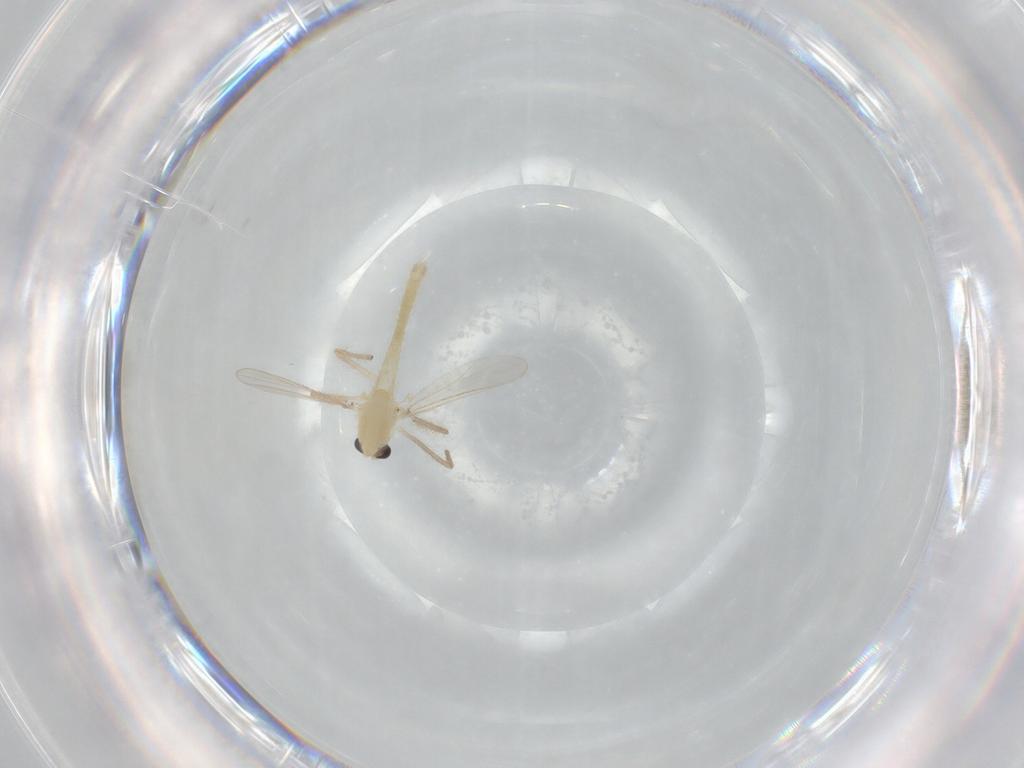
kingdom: Animalia
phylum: Arthropoda
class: Insecta
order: Diptera
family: Chironomidae
